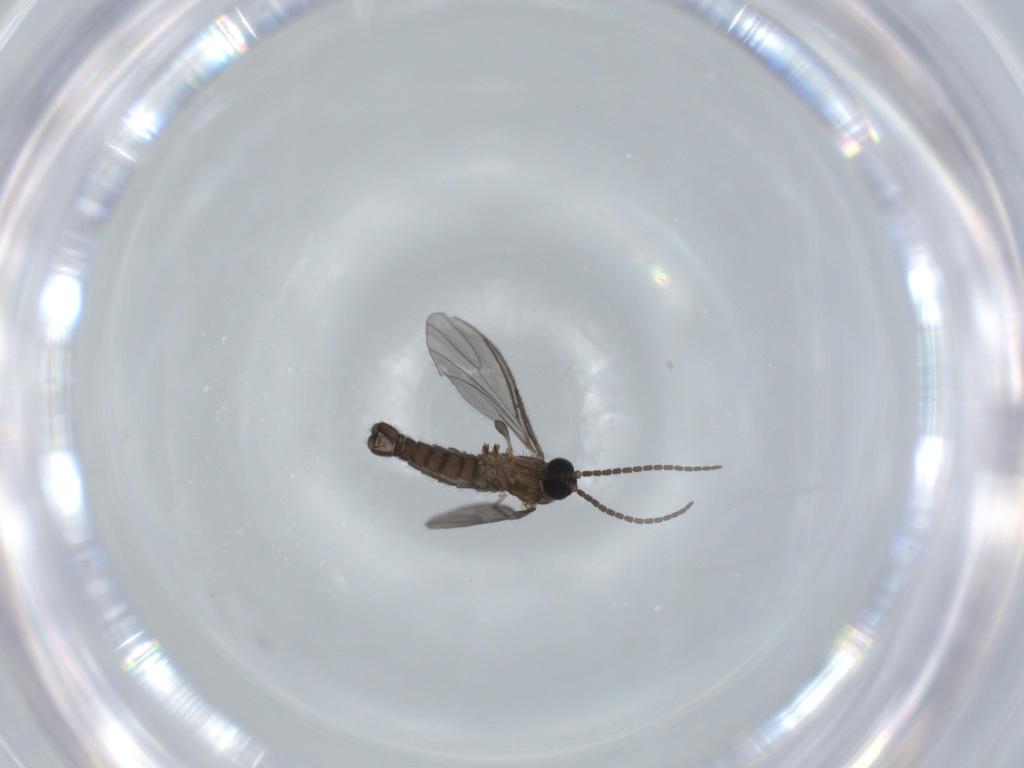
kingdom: Animalia
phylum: Arthropoda
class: Insecta
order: Diptera
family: Sciaridae
